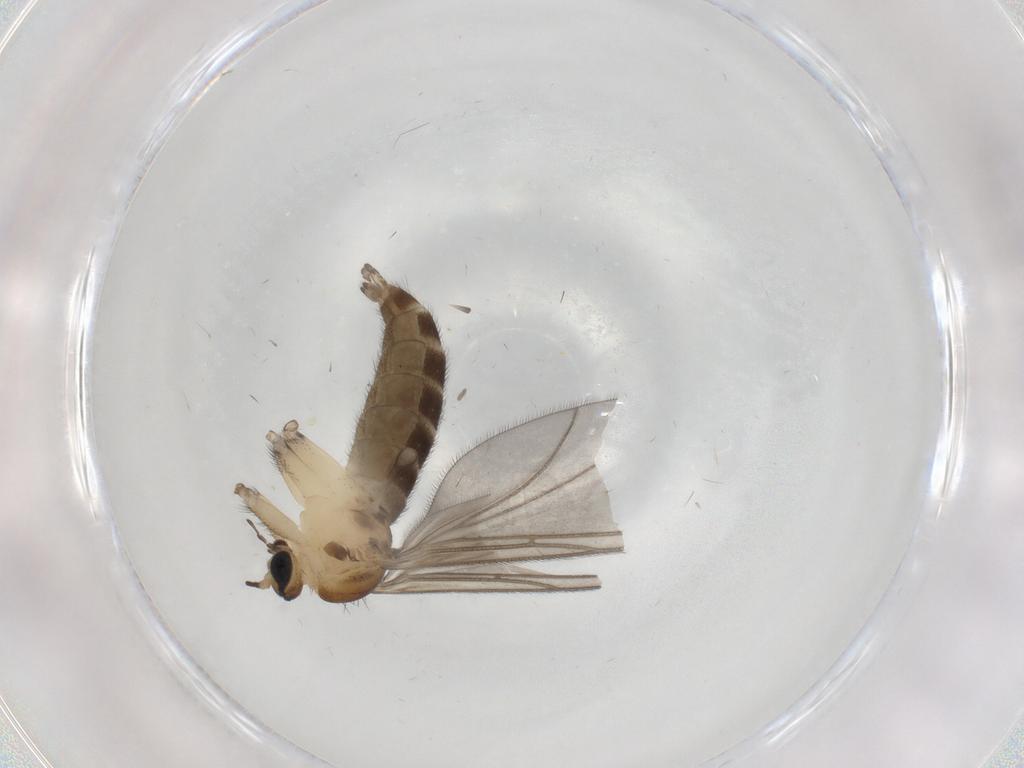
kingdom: Animalia
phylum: Arthropoda
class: Insecta
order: Diptera
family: Sciaridae
